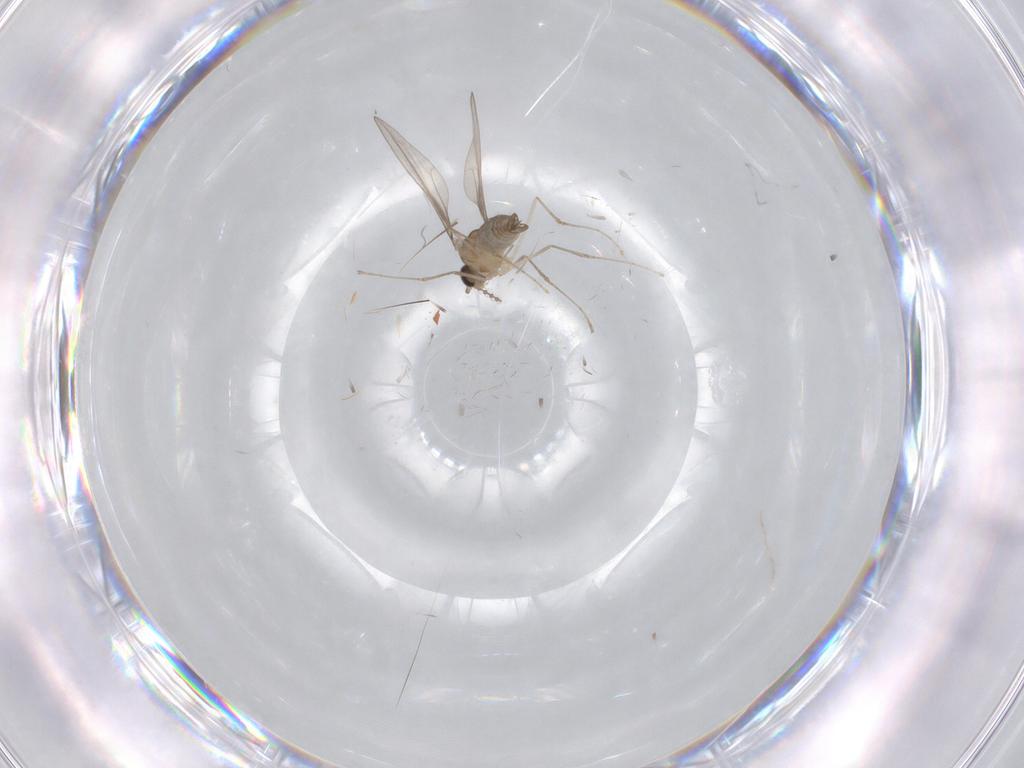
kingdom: Animalia
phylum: Arthropoda
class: Insecta
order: Diptera
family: Cecidomyiidae
